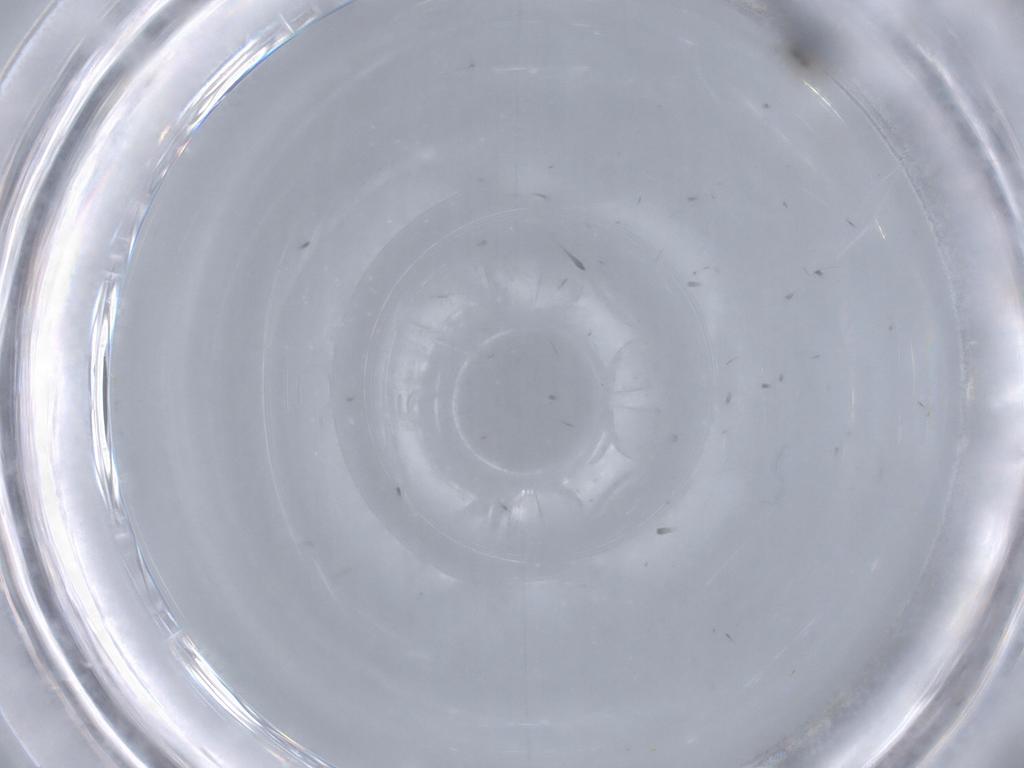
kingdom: Animalia
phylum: Arthropoda
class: Insecta
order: Diptera
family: Cecidomyiidae
